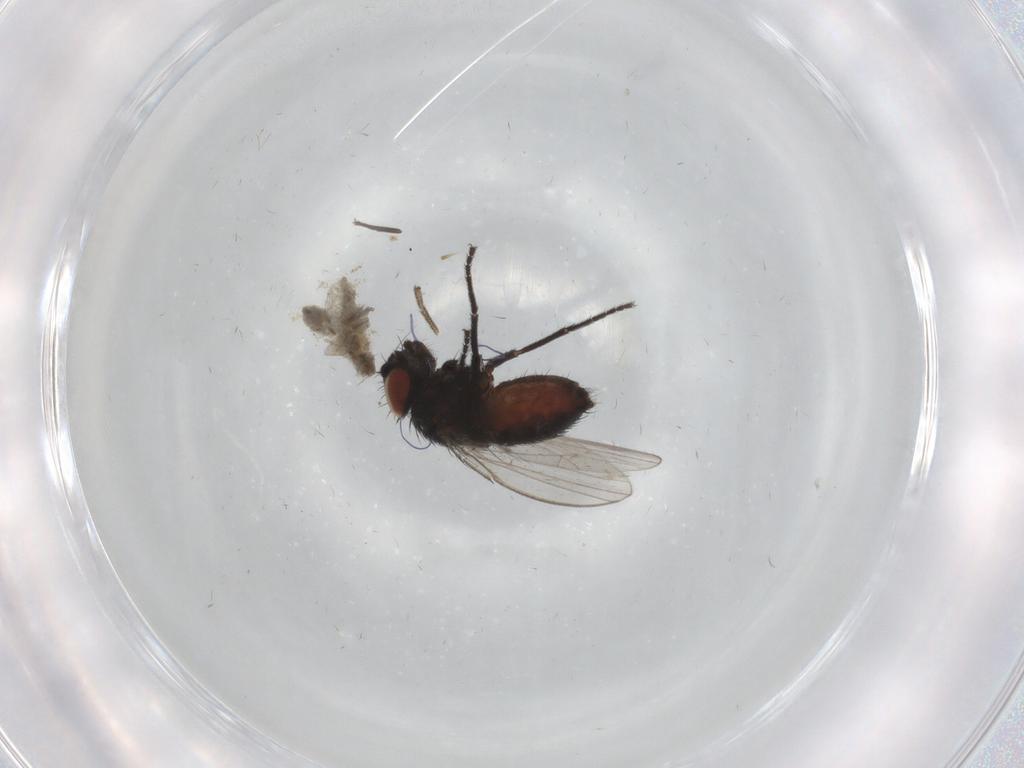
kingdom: Animalia
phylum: Arthropoda
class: Insecta
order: Diptera
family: Milichiidae
